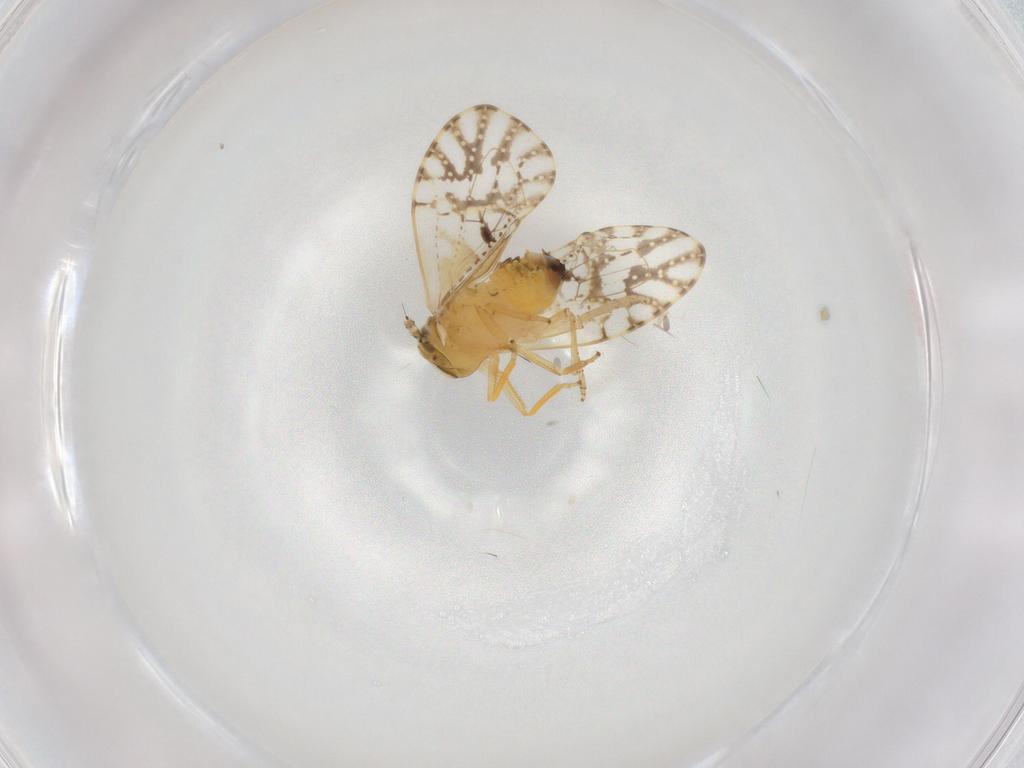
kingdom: Animalia
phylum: Arthropoda
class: Insecta
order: Hemiptera
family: Delphacidae
